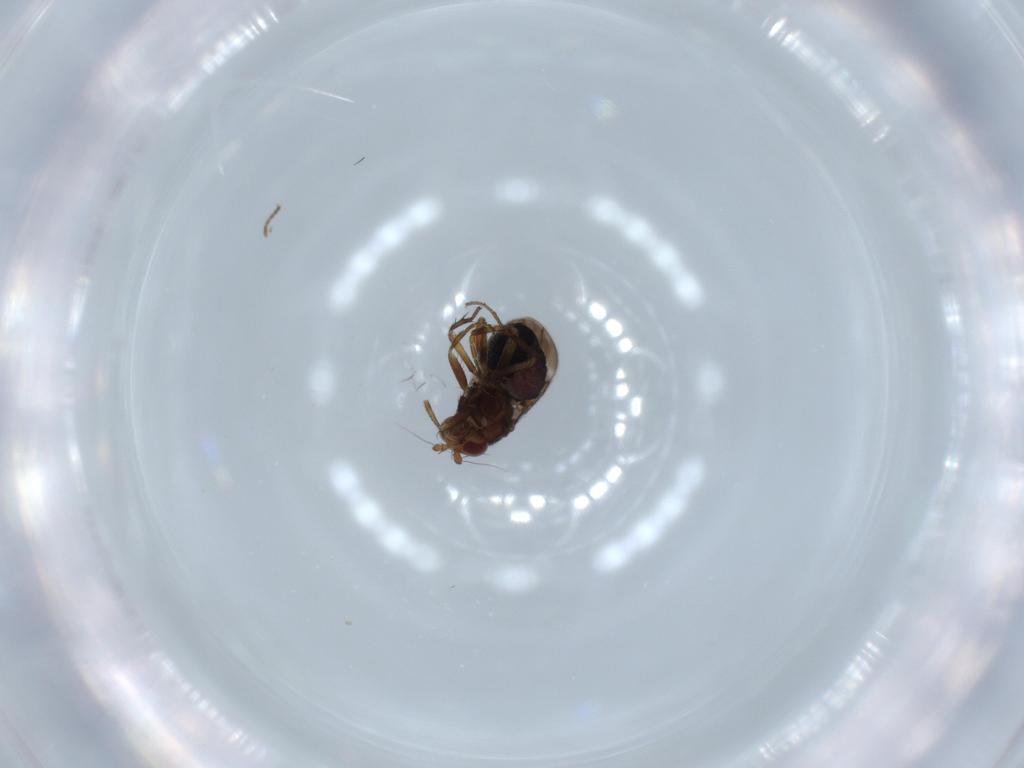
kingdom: Animalia
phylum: Arthropoda
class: Insecta
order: Diptera
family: Sphaeroceridae
